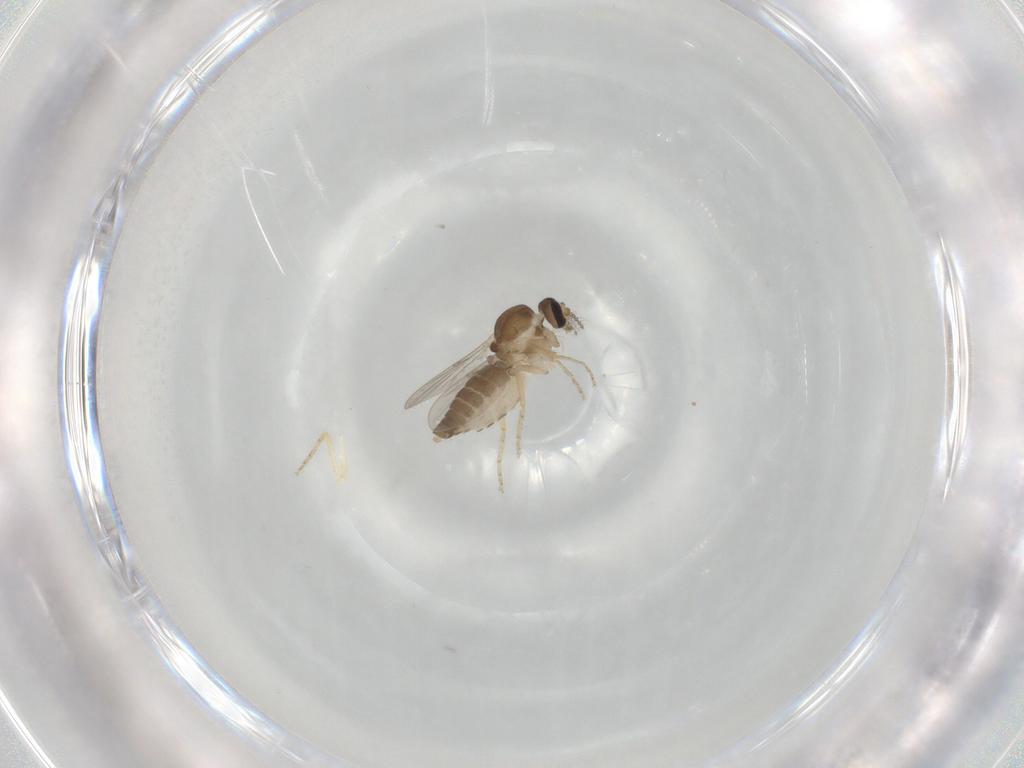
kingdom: Animalia
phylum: Arthropoda
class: Insecta
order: Diptera
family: Ceratopogonidae
